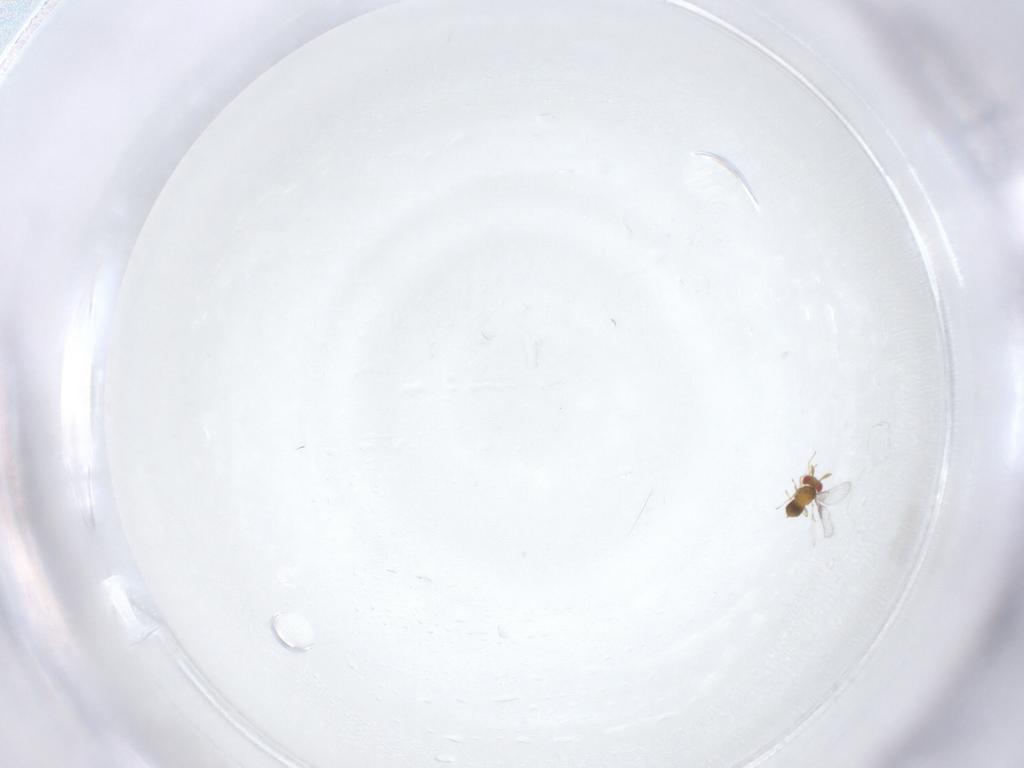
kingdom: Animalia
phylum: Arthropoda
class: Insecta
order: Hymenoptera
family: Trichogrammatidae
